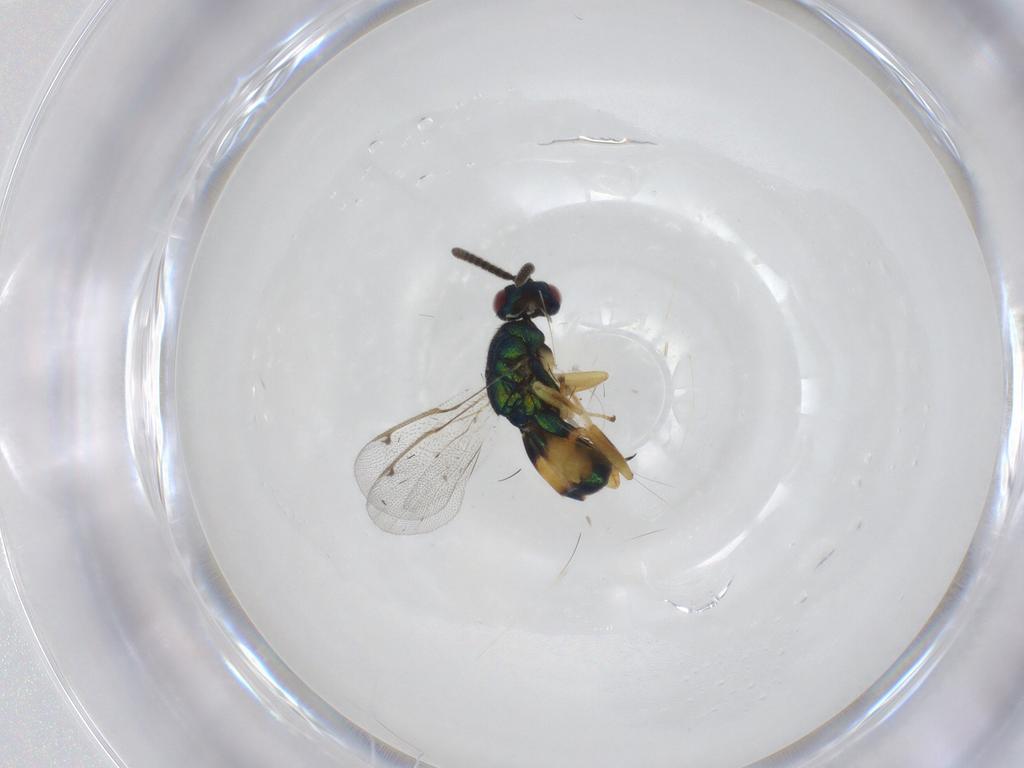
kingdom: Animalia
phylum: Arthropoda
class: Insecta
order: Hymenoptera
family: Torymidae
